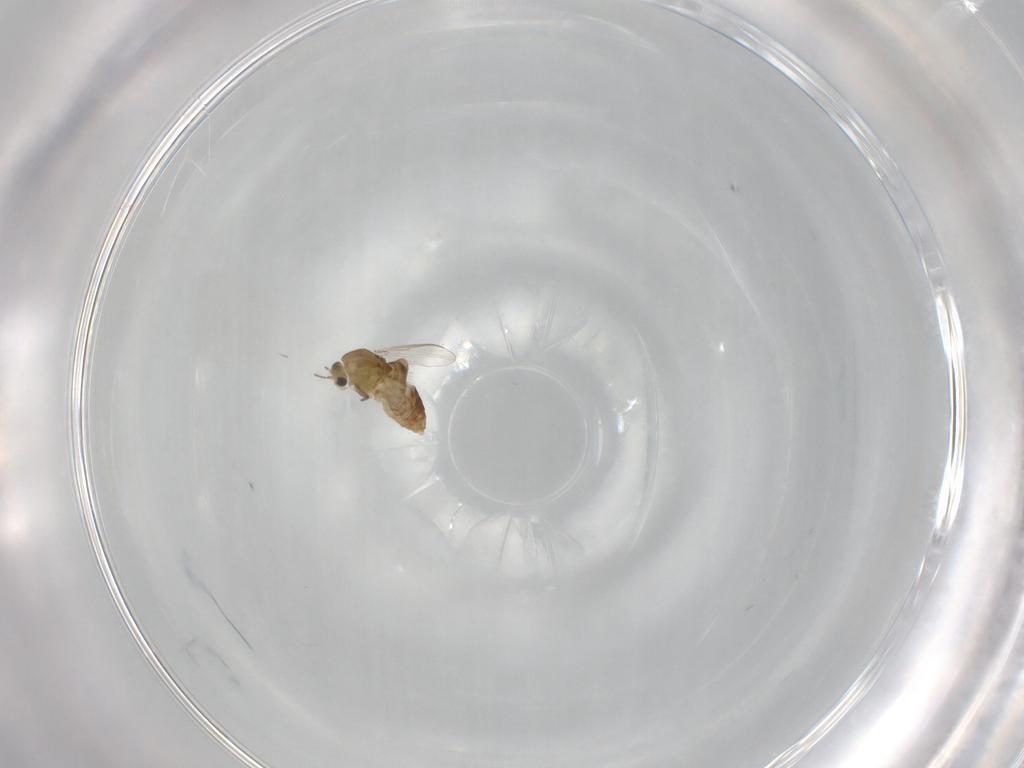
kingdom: Animalia
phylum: Arthropoda
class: Insecta
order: Diptera
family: Chironomidae
